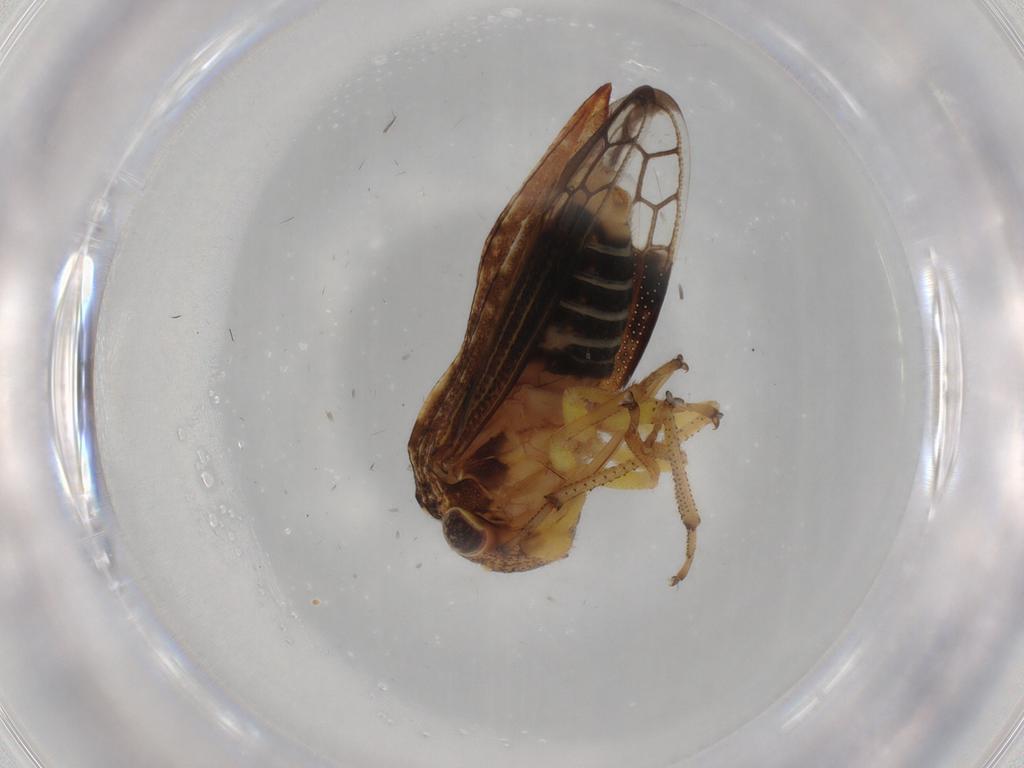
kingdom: Animalia
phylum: Arthropoda
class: Insecta
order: Hemiptera
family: Membracidae
